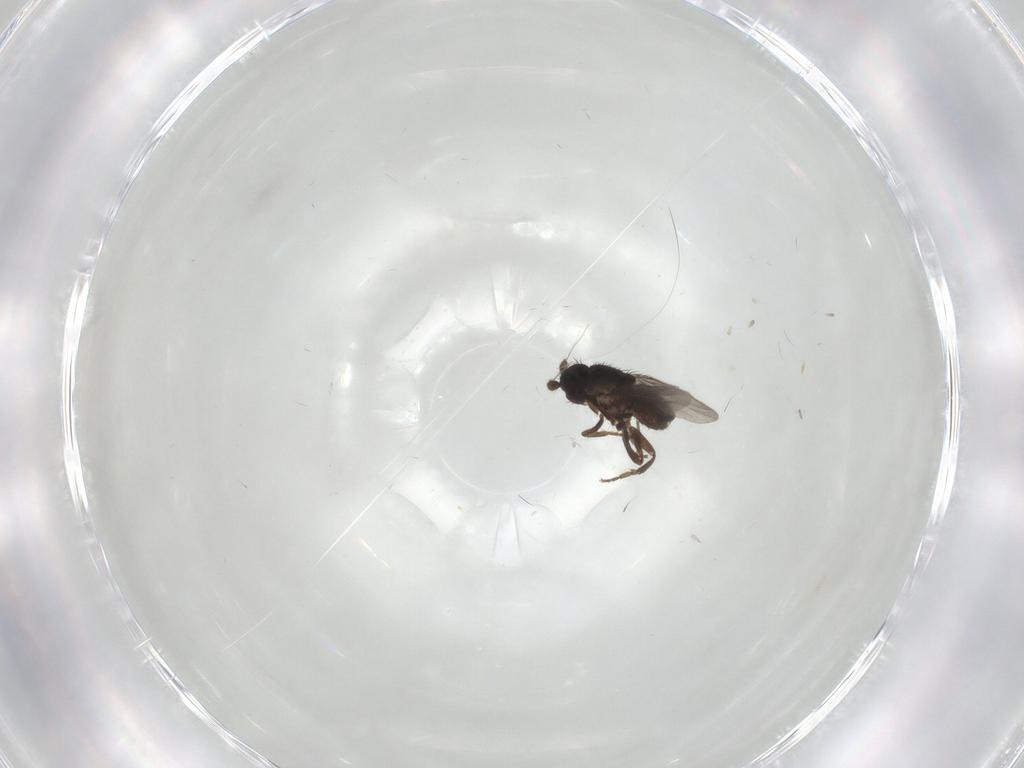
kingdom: Animalia
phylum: Arthropoda
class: Insecta
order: Diptera
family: Sphaeroceridae
